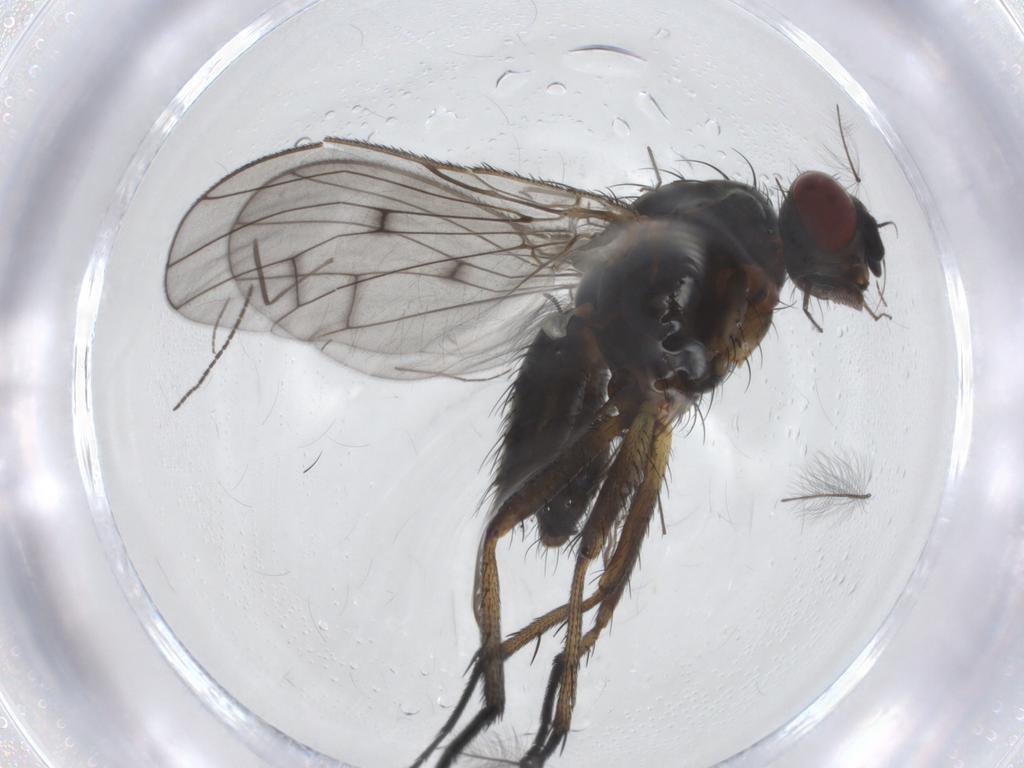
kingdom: Animalia
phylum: Arthropoda
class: Insecta
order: Diptera
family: Anthomyiidae
